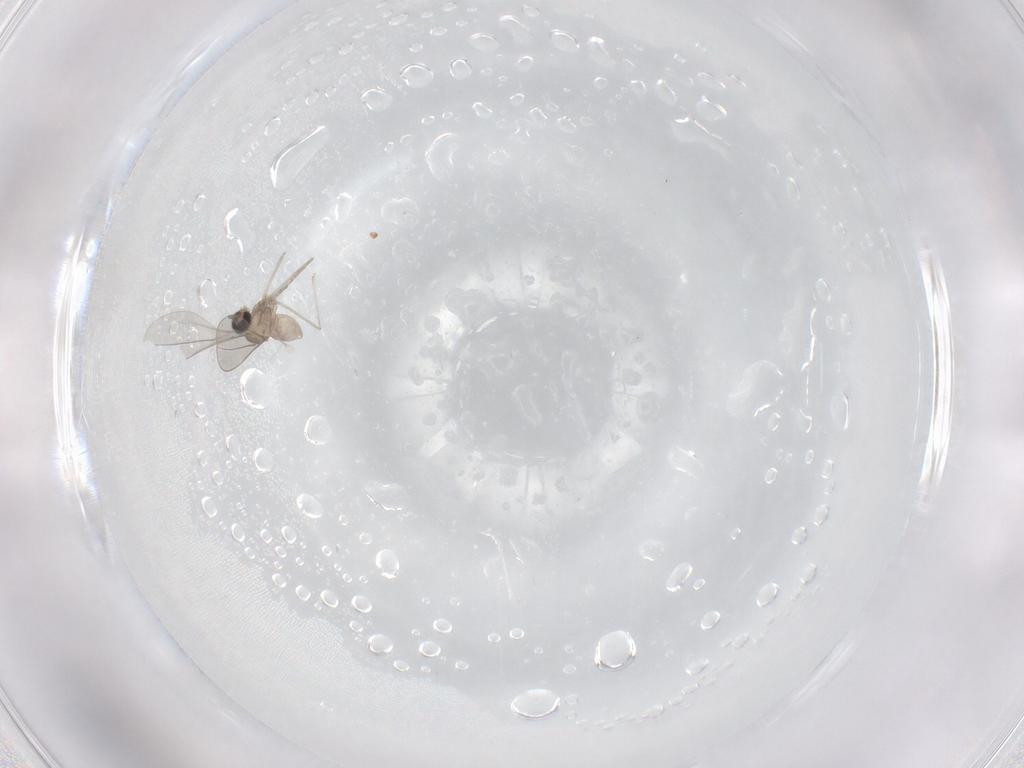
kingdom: Animalia
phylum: Arthropoda
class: Insecta
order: Diptera
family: Cecidomyiidae
